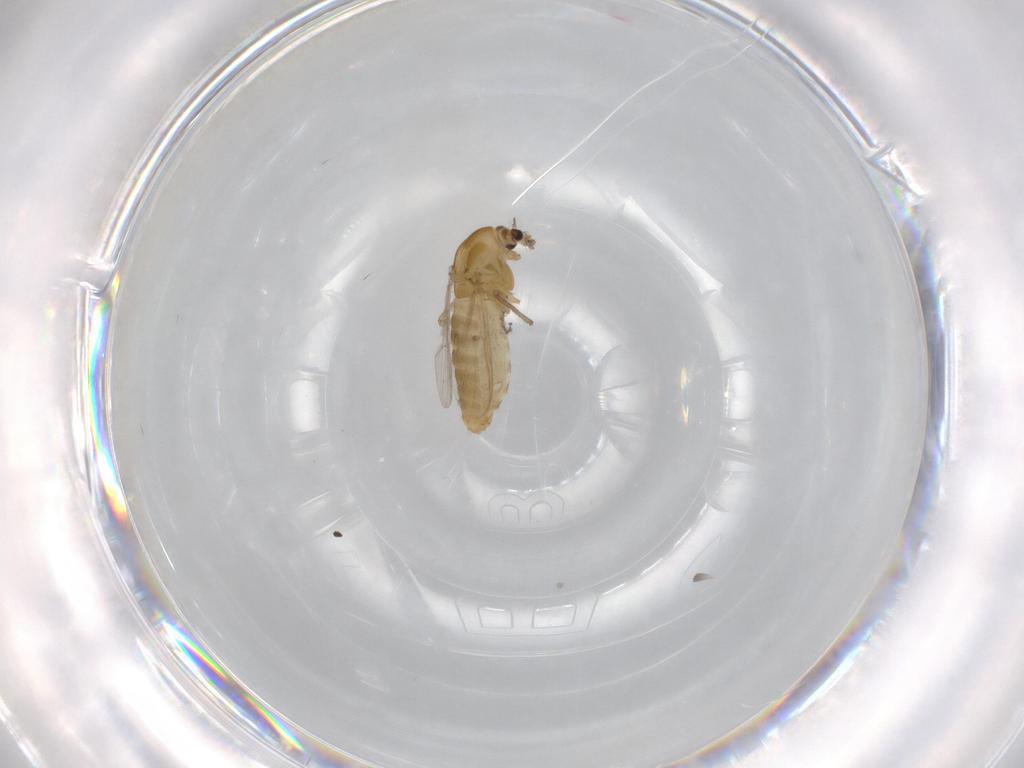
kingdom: Animalia
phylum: Arthropoda
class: Insecta
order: Diptera
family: Chironomidae
